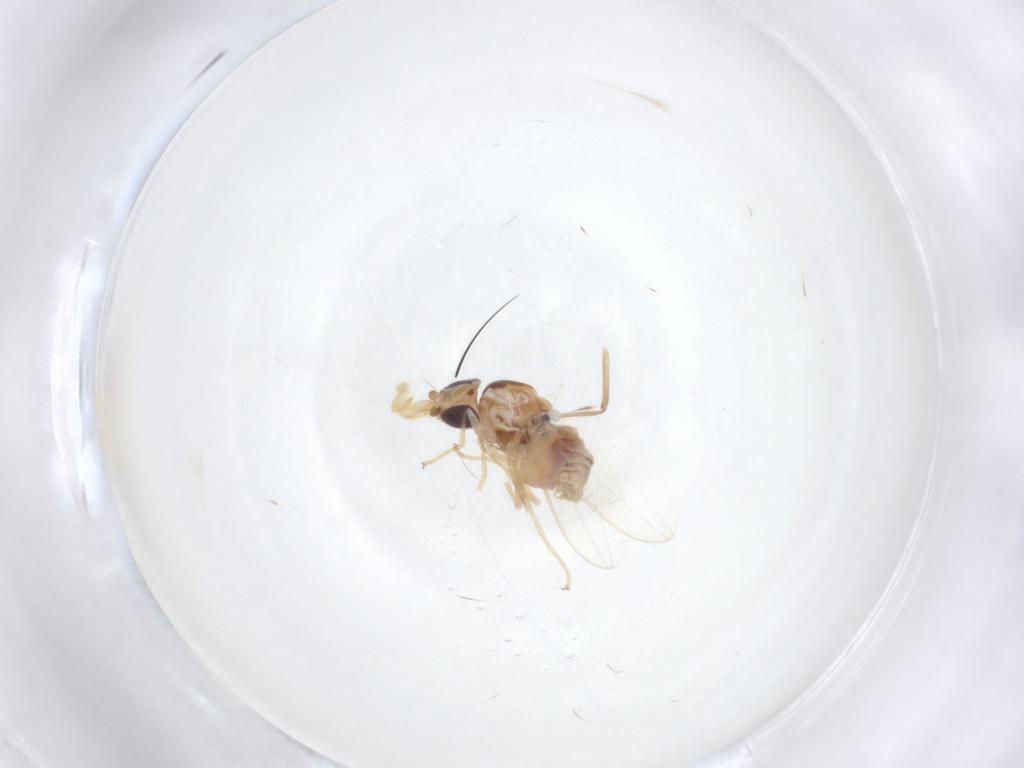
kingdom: Animalia
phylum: Arthropoda
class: Insecta
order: Diptera
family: Chloropidae
